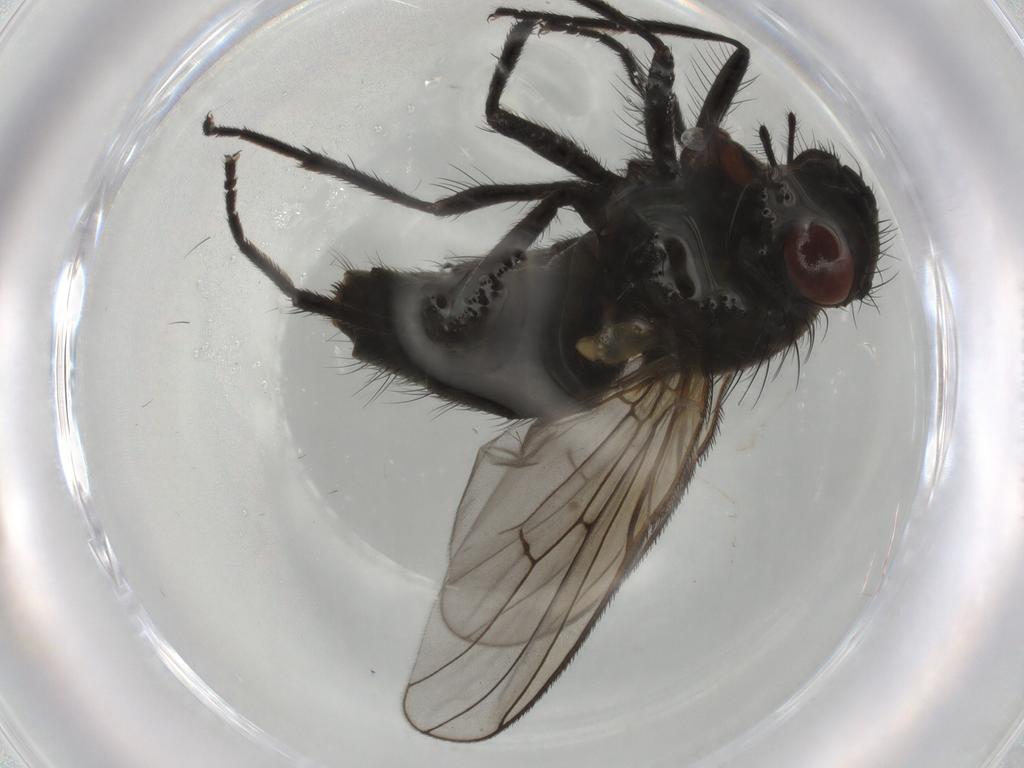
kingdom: Animalia
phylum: Arthropoda
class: Insecta
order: Diptera
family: Muscidae
